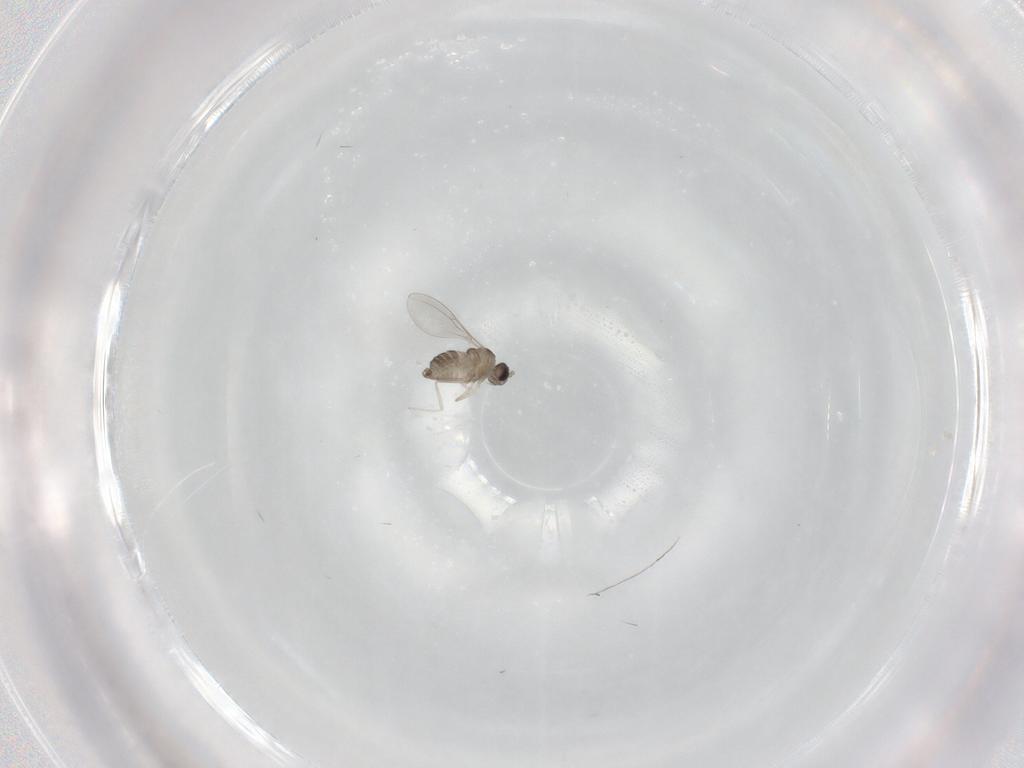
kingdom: Animalia
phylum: Arthropoda
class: Insecta
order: Diptera
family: Cecidomyiidae
